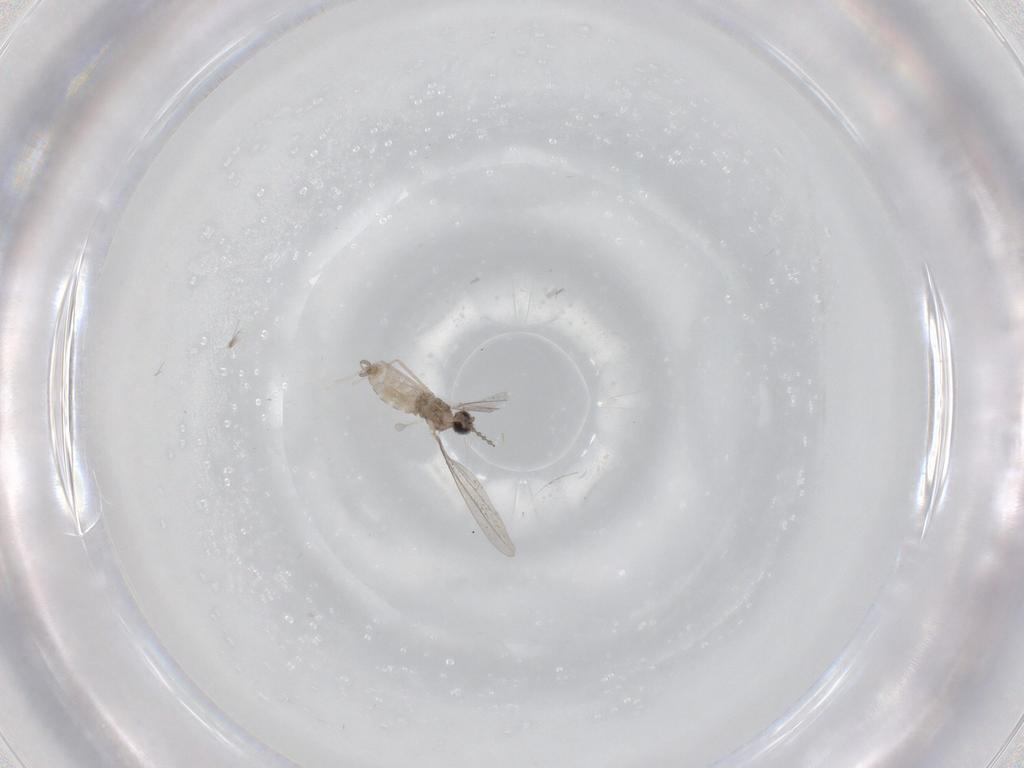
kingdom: Animalia
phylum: Arthropoda
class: Insecta
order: Diptera
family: Cecidomyiidae
